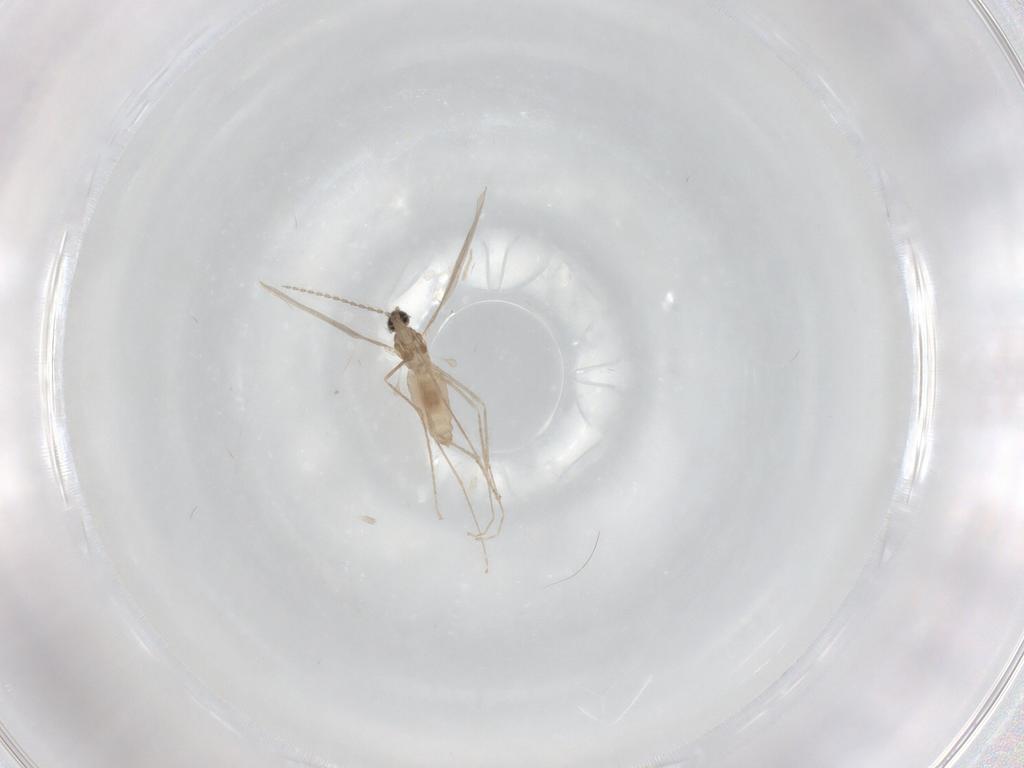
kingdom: Animalia
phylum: Arthropoda
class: Insecta
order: Diptera
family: Cecidomyiidae
